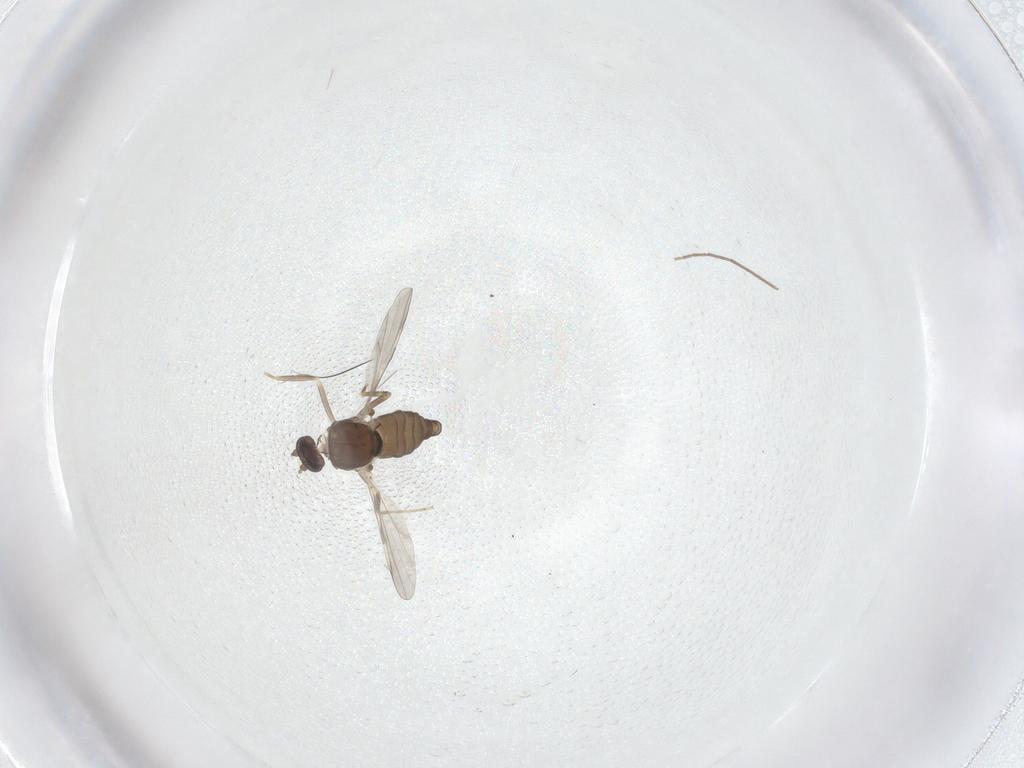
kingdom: Animalia
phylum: Arthropoda
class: Insecta
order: Diptera
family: Ceratopogonidae
